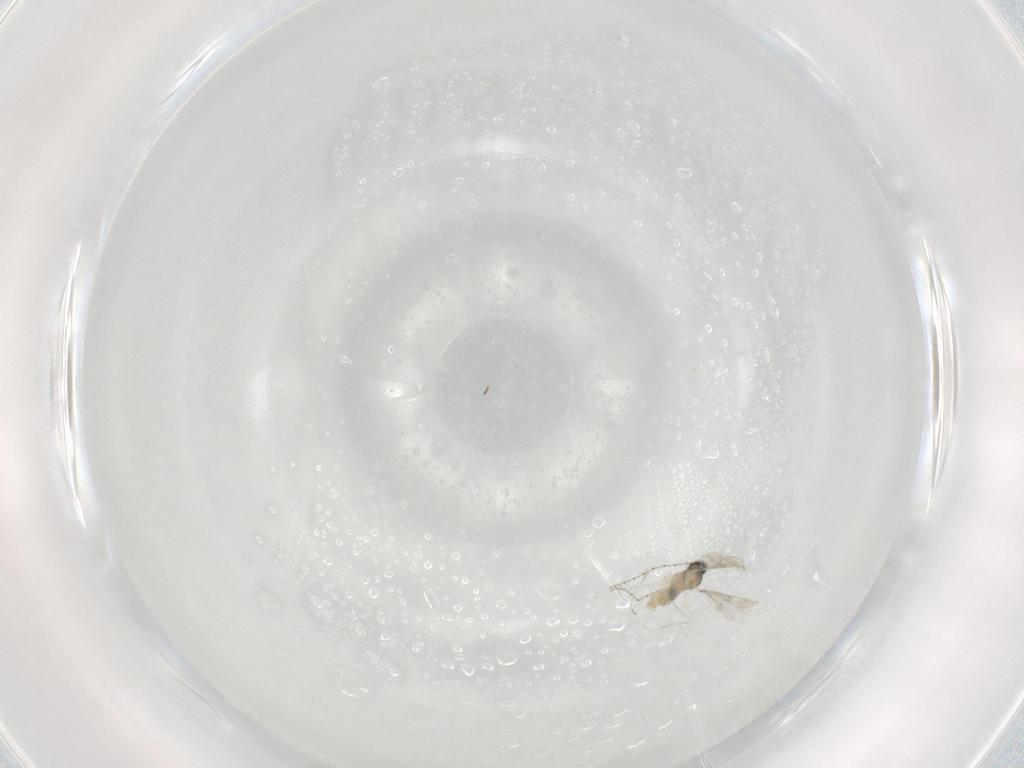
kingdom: Animalia
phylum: Arthropoda
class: Insecta
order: Diptera
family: Cecidomyiidae
